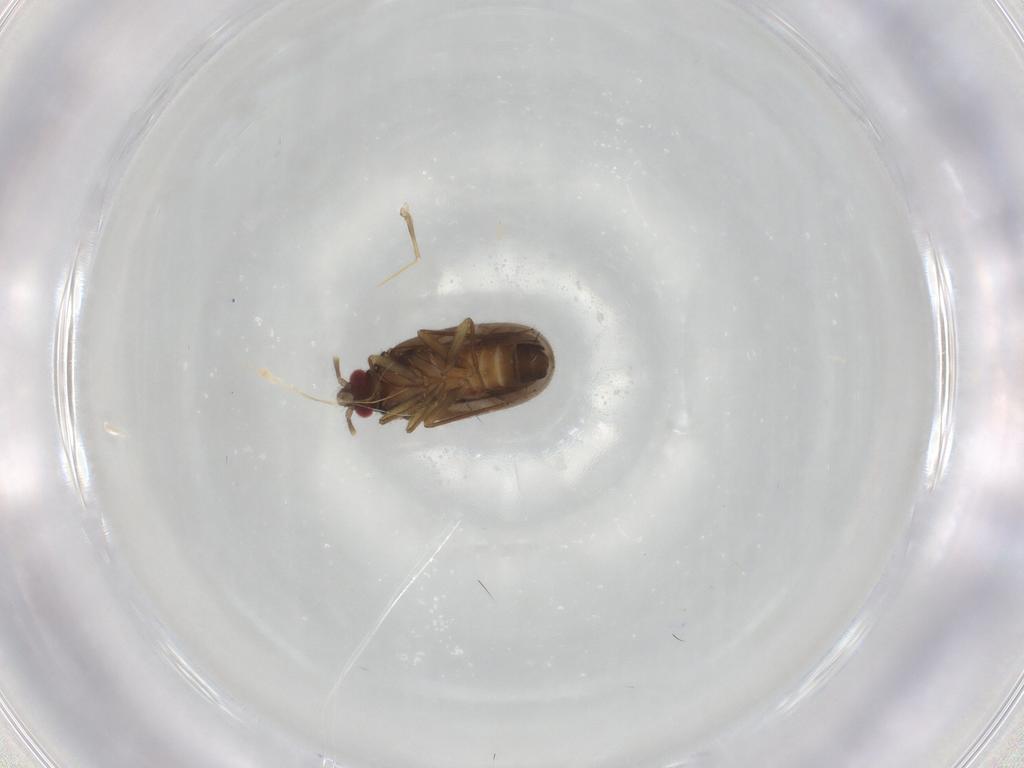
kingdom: Animalia
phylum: Arthropoda
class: Insecta
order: Hemiptera
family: Ceratocombidae
